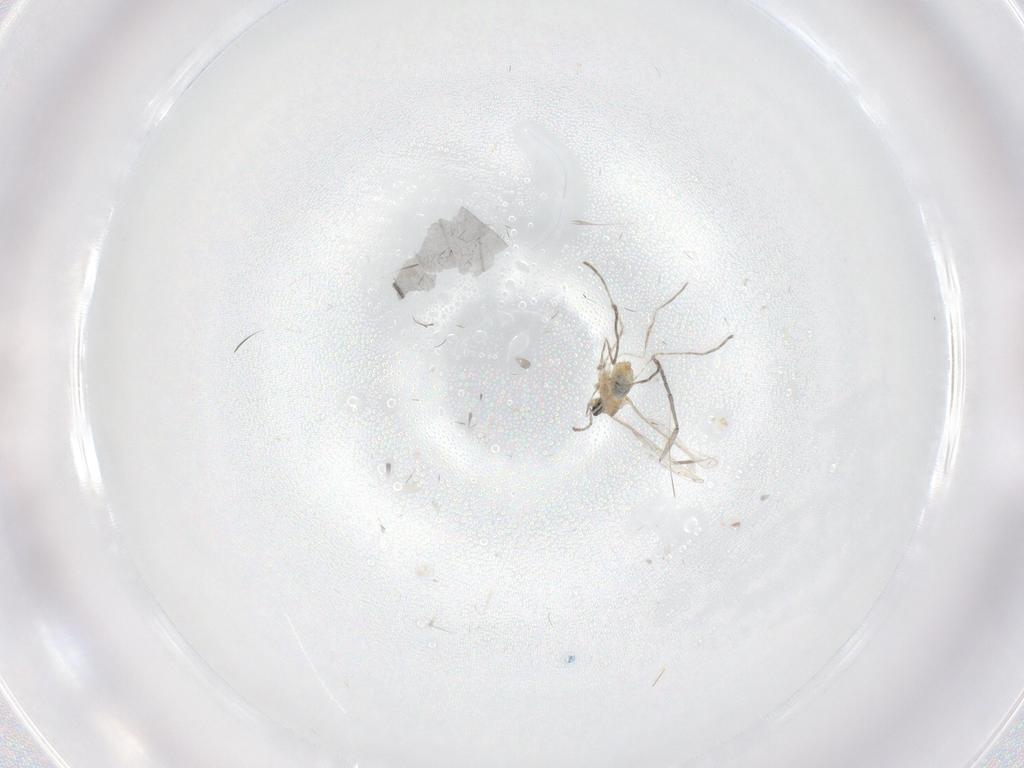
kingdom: Animalia
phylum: Arthropoda
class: Insecta
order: Diptera
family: Cecidomyiidae
